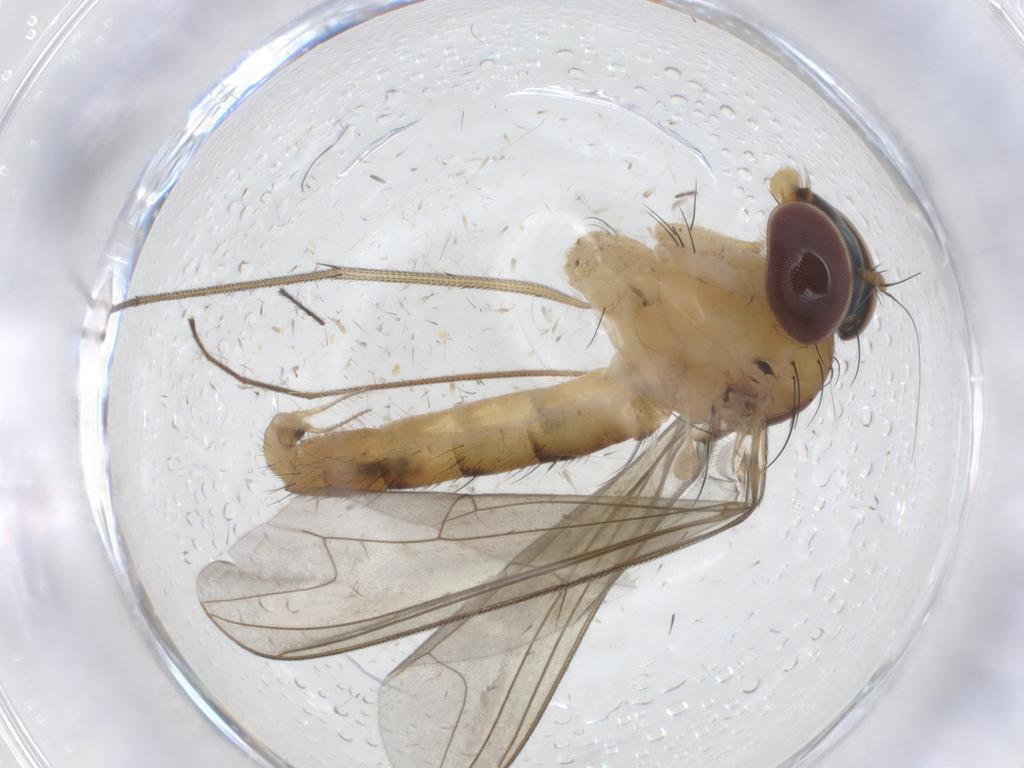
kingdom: Animalia
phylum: Arthropoda
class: Insecta
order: Diptera
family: Dolichopodidae
